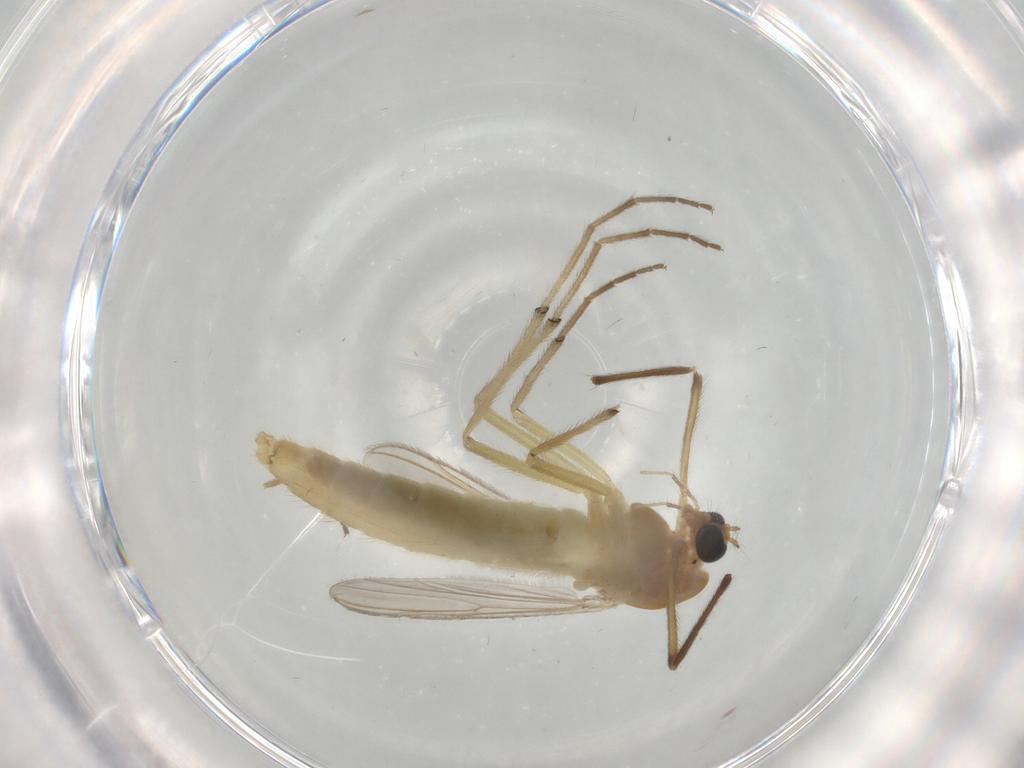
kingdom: Animalia
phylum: Arthropoda
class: Insecta
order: Diptera
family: Chironomidae
